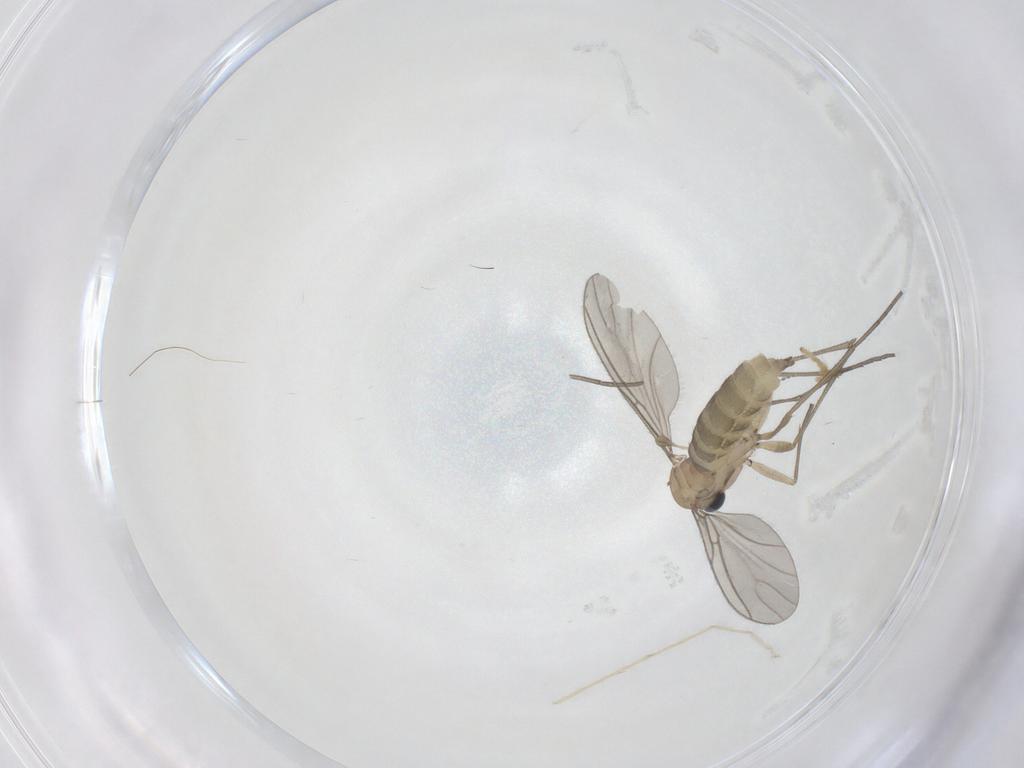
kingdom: Animalia
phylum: Arthropoda
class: Insecta
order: Diptera
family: Sciaridae
